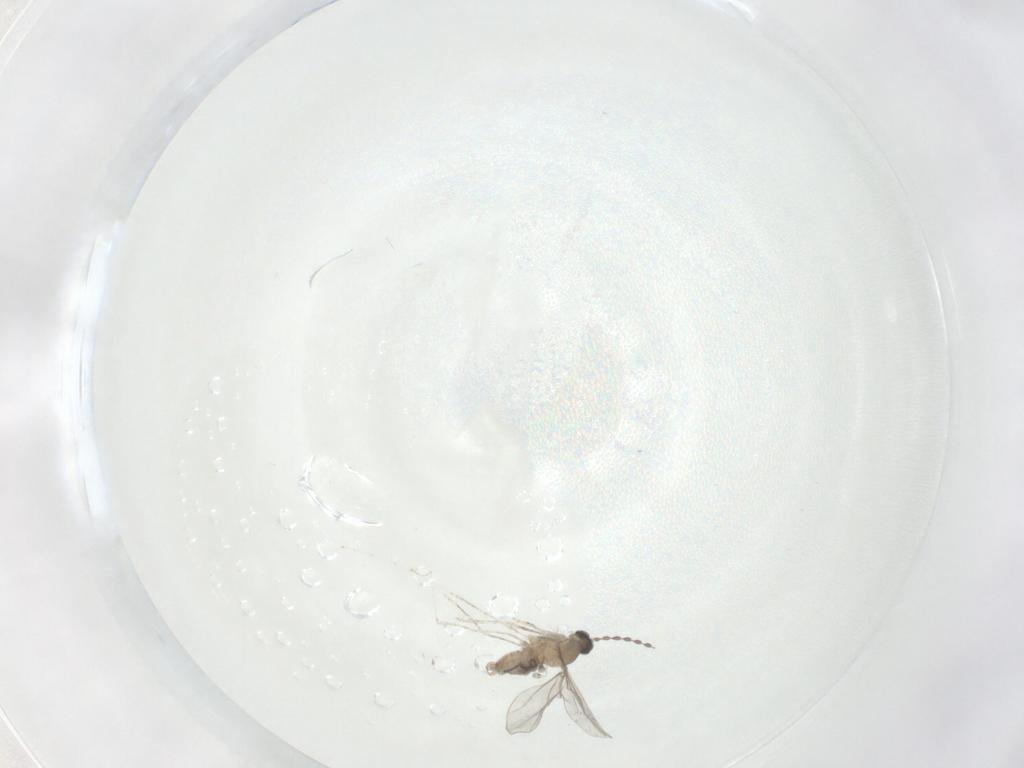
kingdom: Animalia
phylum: Arthropoda
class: Insecta
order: Diptera
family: Cecidomyiidae
